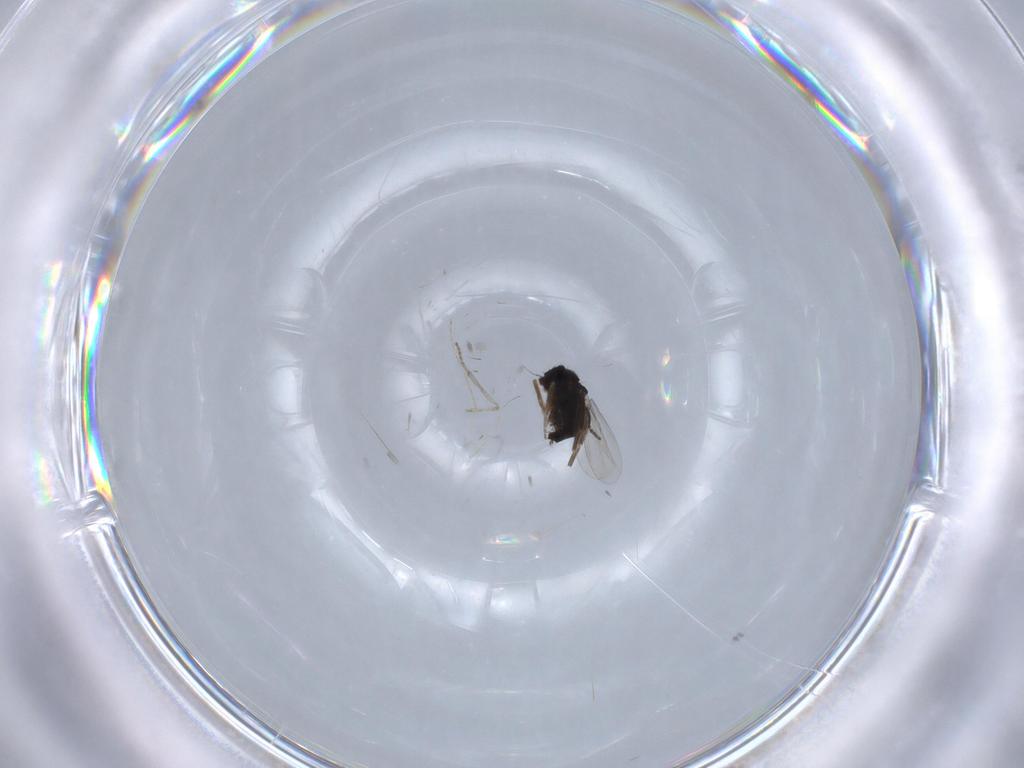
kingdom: Animalia
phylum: Arthropoda
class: Insecta
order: Diptera
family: Phoridae
